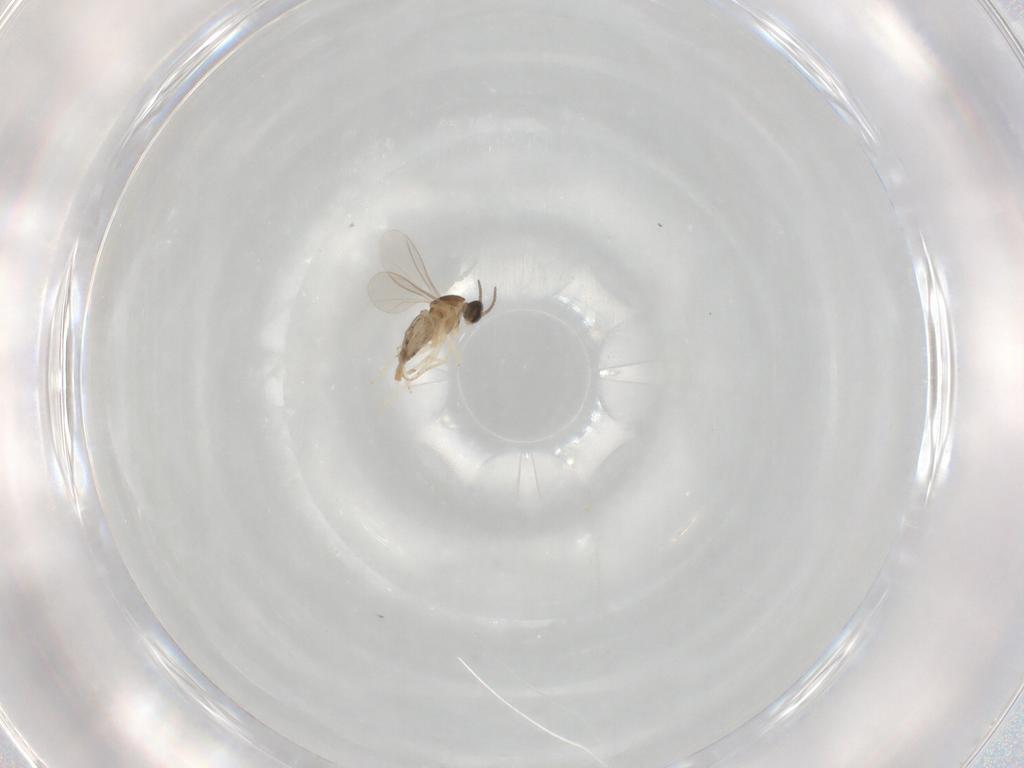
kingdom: Animalia
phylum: Arthropoda
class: Insecta
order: Diptera
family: Cecidomyiidae
